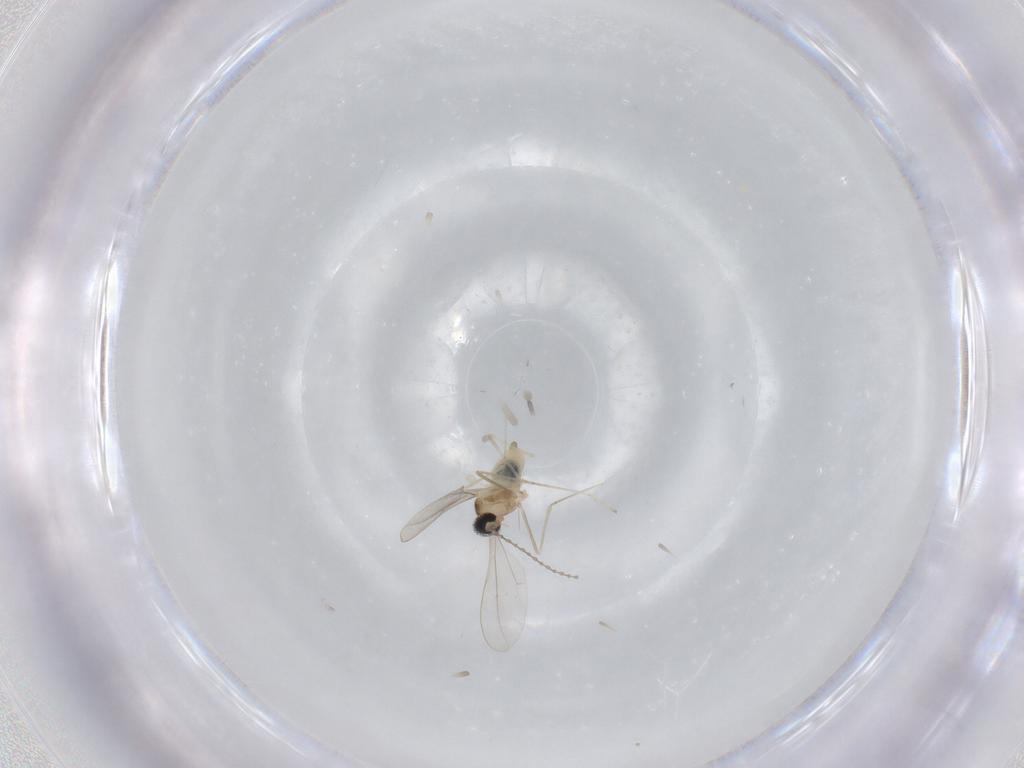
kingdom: Animalia
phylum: Arthropoda
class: Insecta
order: Diptera
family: Cecidomyiidae
